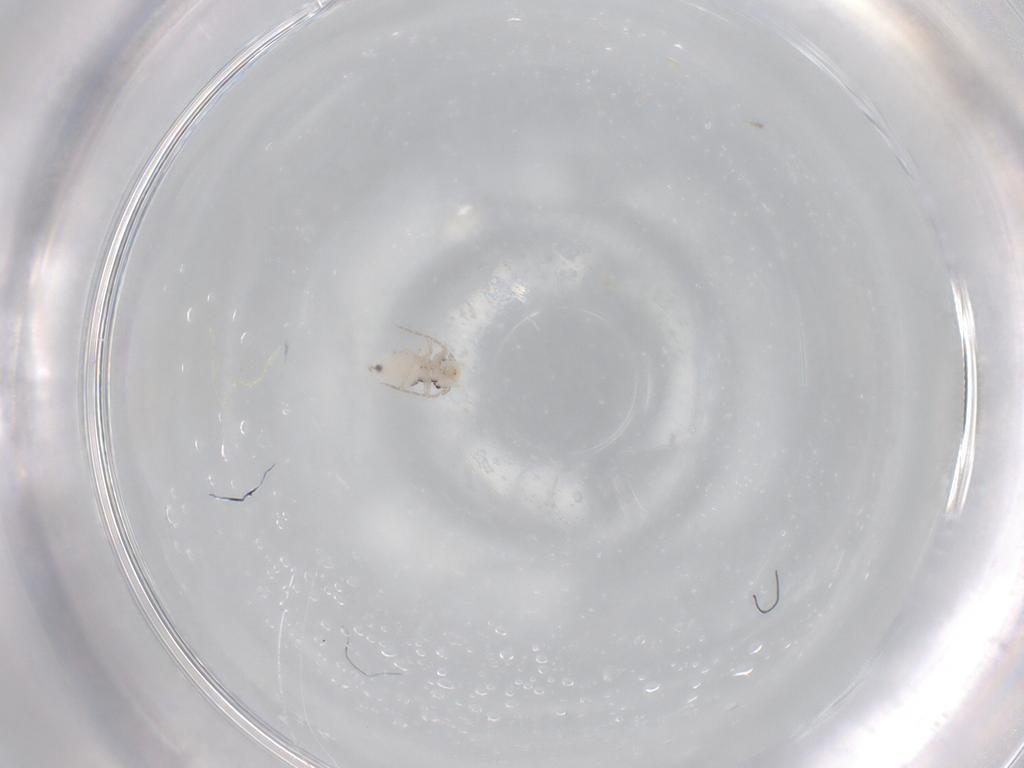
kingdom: Animalia
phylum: Arthropoda
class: Insecta
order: Psocodea
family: Myopsocidae
